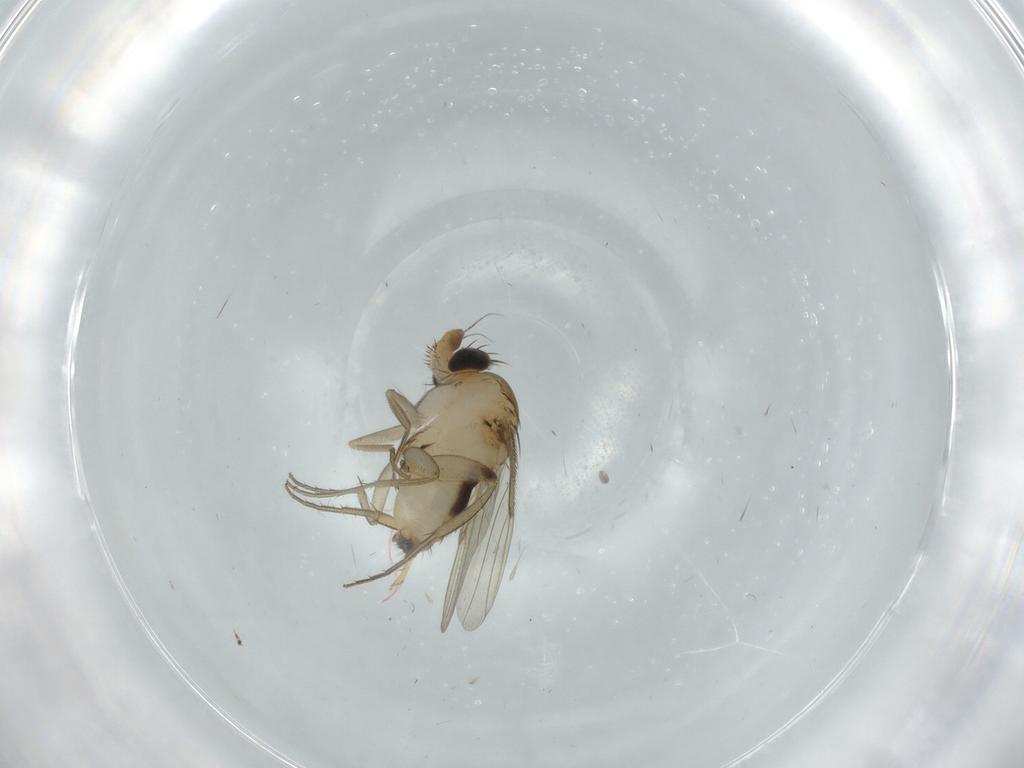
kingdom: Animalia
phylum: Arthropoda
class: Insecta
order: Diptera
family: Phoridae
